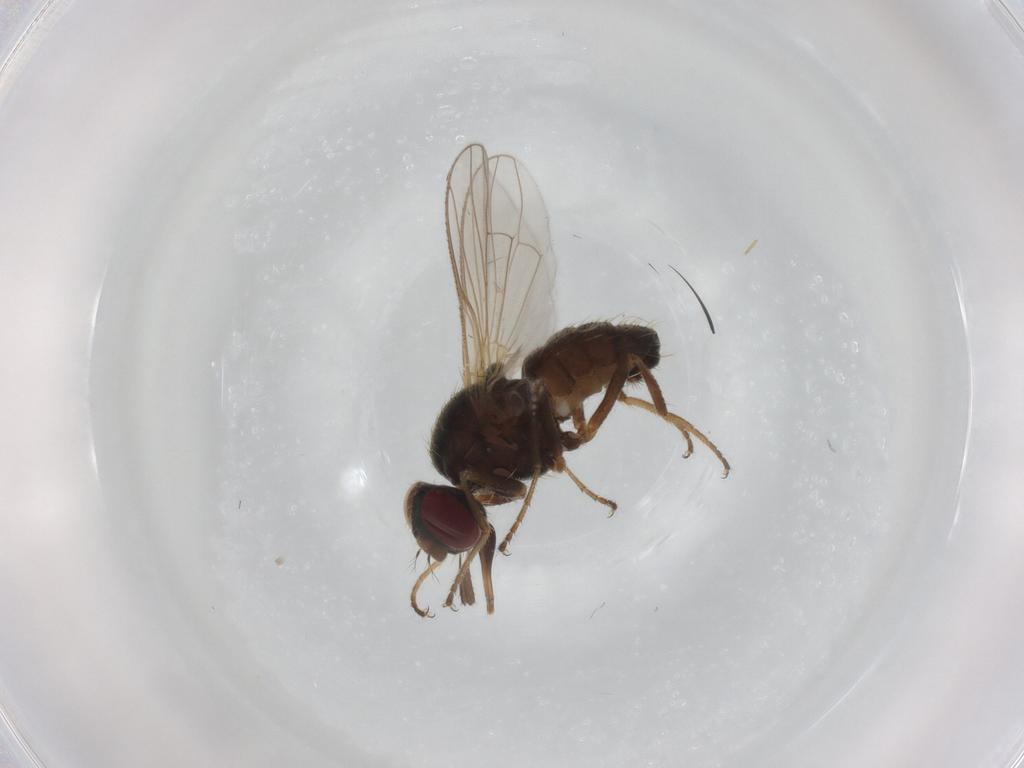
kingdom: Animalia
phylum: Arthropoda
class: Insecta
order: Diptera
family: Muscidae
